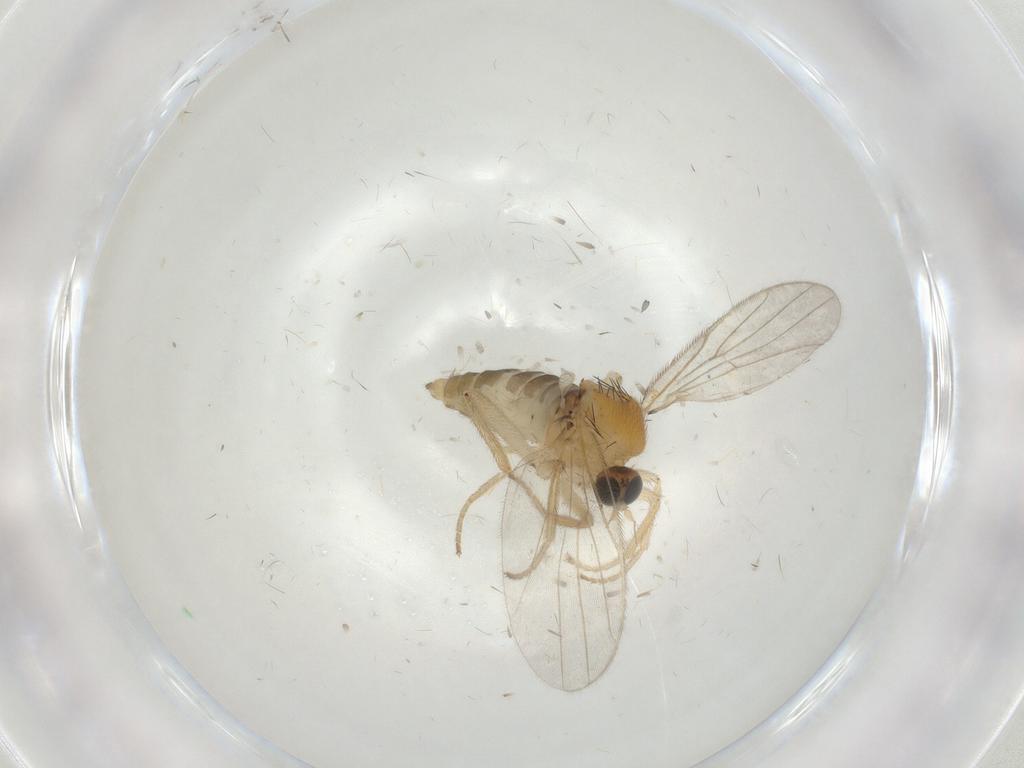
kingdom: Animalia
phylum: Arthropoda
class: Insecta
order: Diptera
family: Hybotidae
